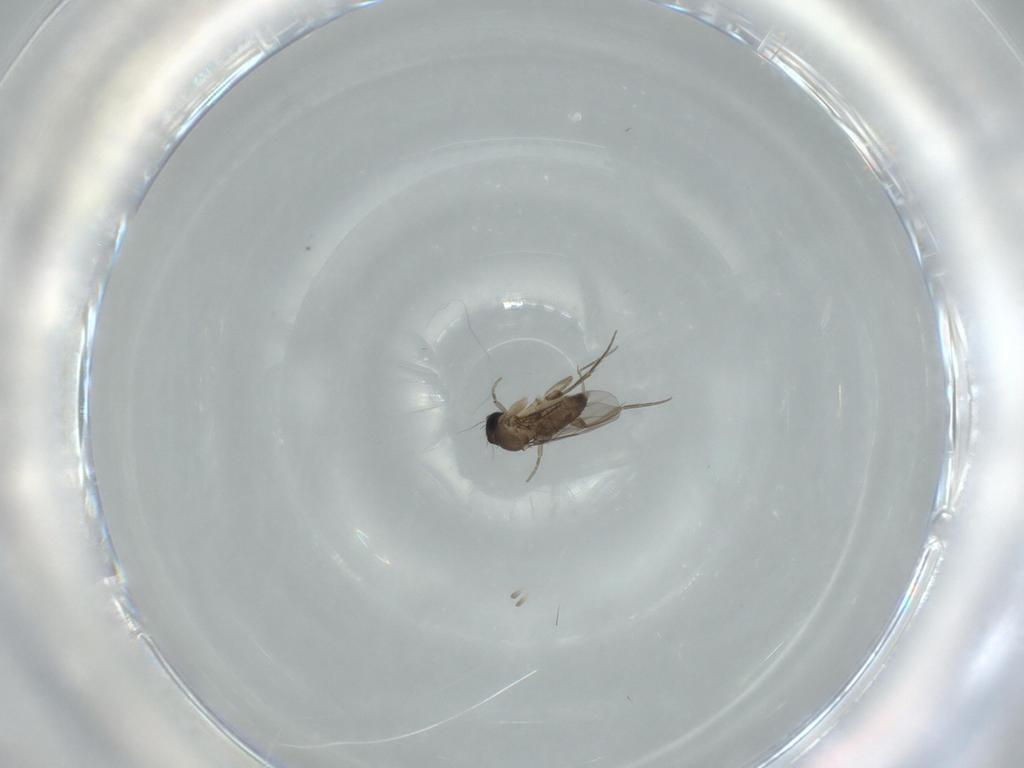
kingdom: Animalia
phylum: Arthropoda
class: Insecta
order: Diptera
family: Phoridae
